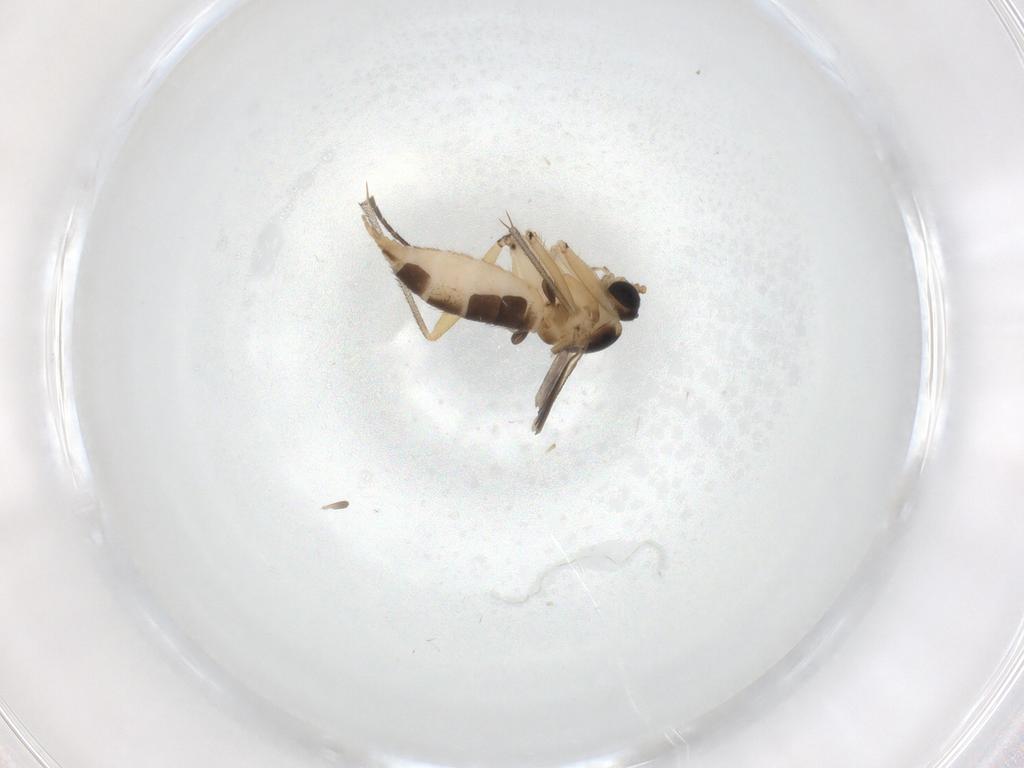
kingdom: Animalia
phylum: Arthropoda
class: Insecta
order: Diptera
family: Sciaridae
